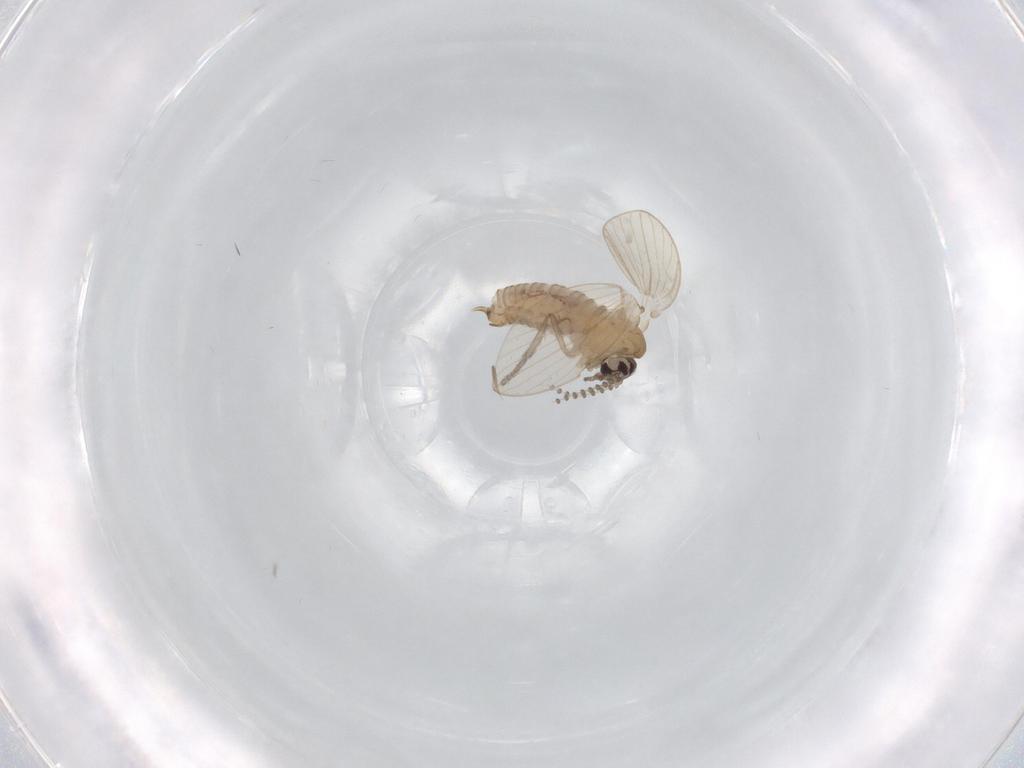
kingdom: Animalia
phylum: Arthropoda
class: Insecta
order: Diptera
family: Psychodidae
